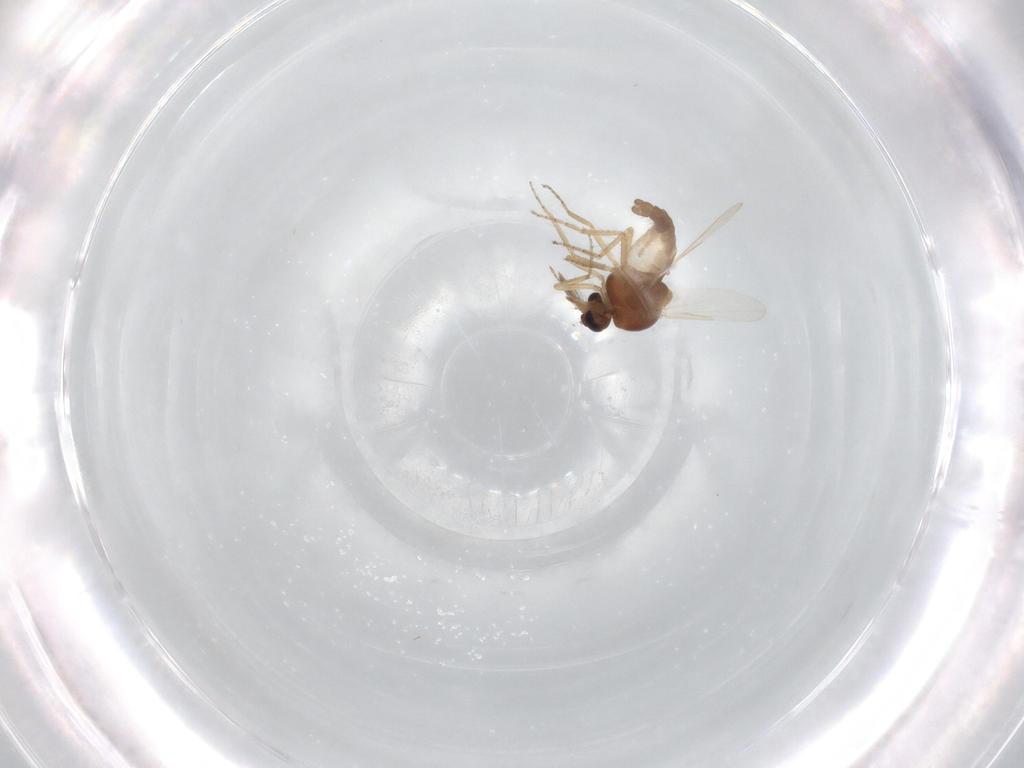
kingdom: Animalia
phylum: Arthropoda
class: Insecta
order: Diptera
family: Ceratopogonidae
